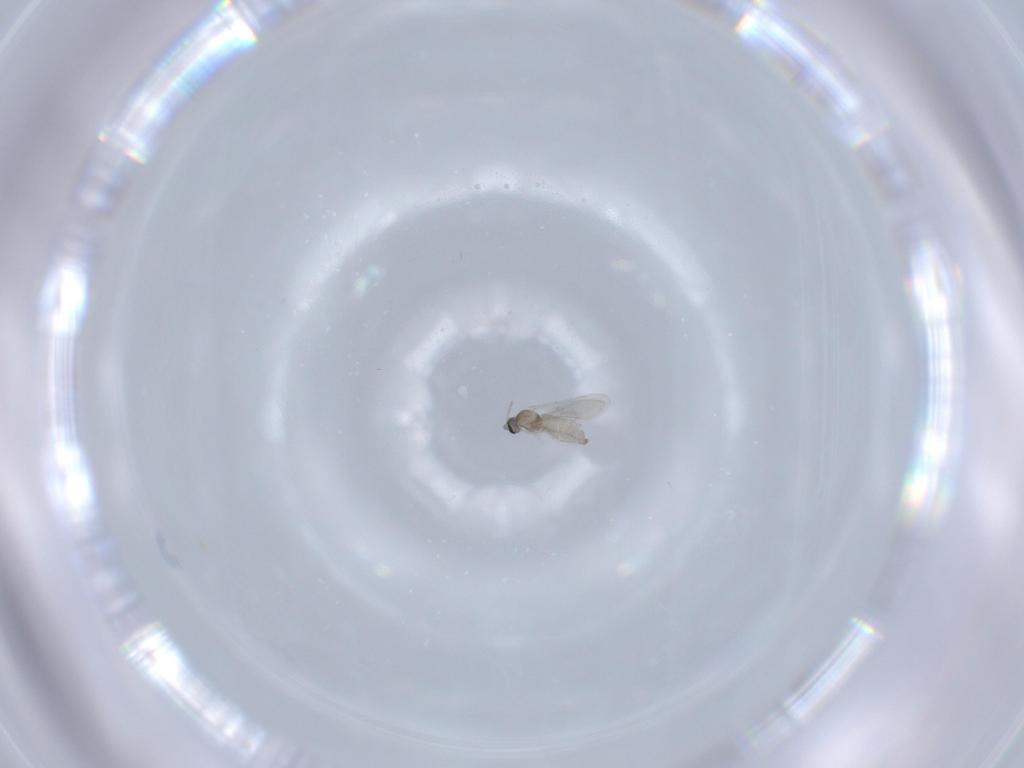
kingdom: Animalia
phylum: Arthropoda
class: Insecta
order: Diptera
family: Cecidomyiidae
